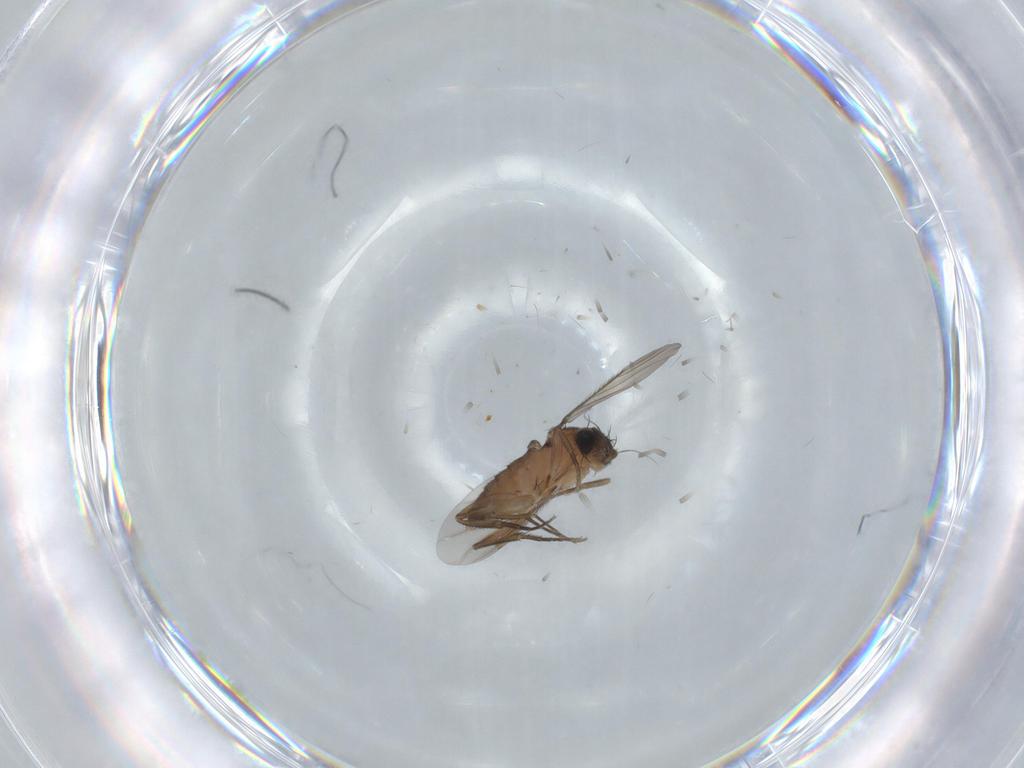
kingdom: Animalia
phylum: Arthropoda
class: Insecta
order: Diptera
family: Phoridae
